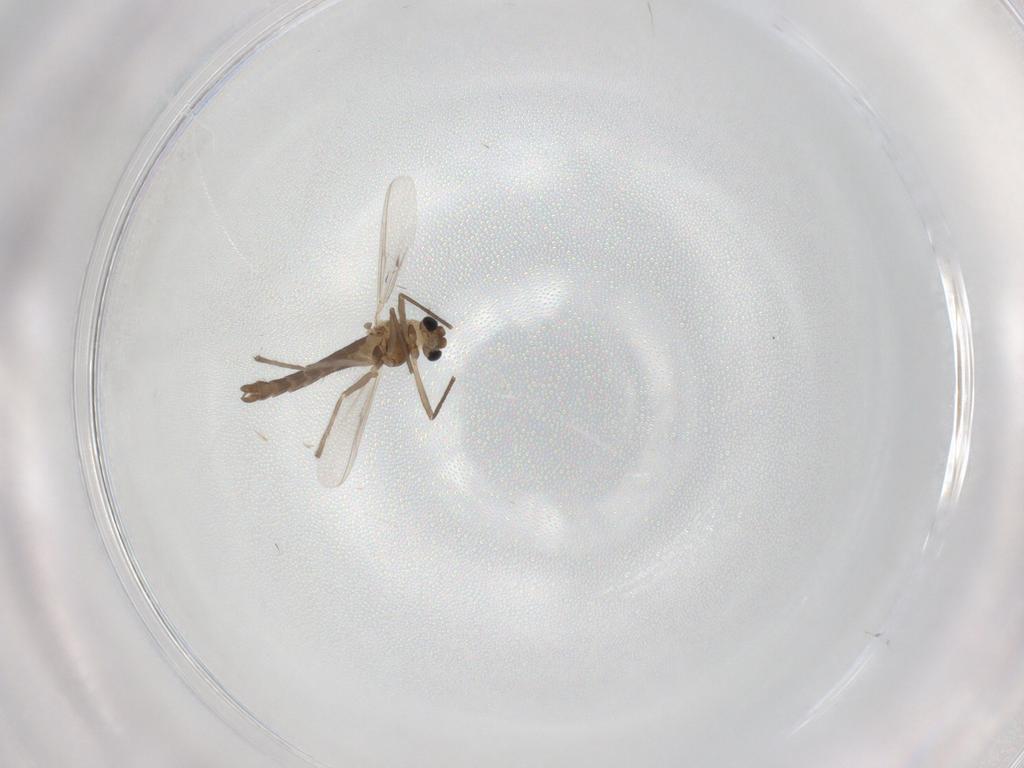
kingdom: Animalia
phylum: Arthropoda
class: Insecta
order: Diptera
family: Chironomidae
